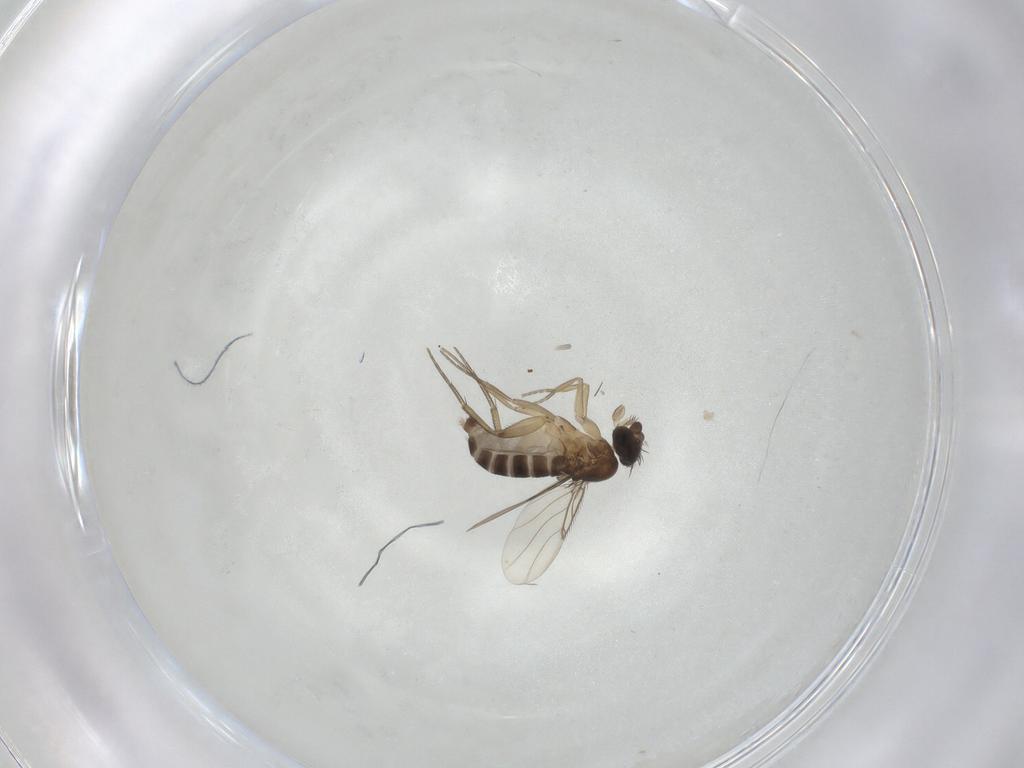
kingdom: Animalia
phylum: Arthropoda
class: Insecta
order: Diptera
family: Phoridae
